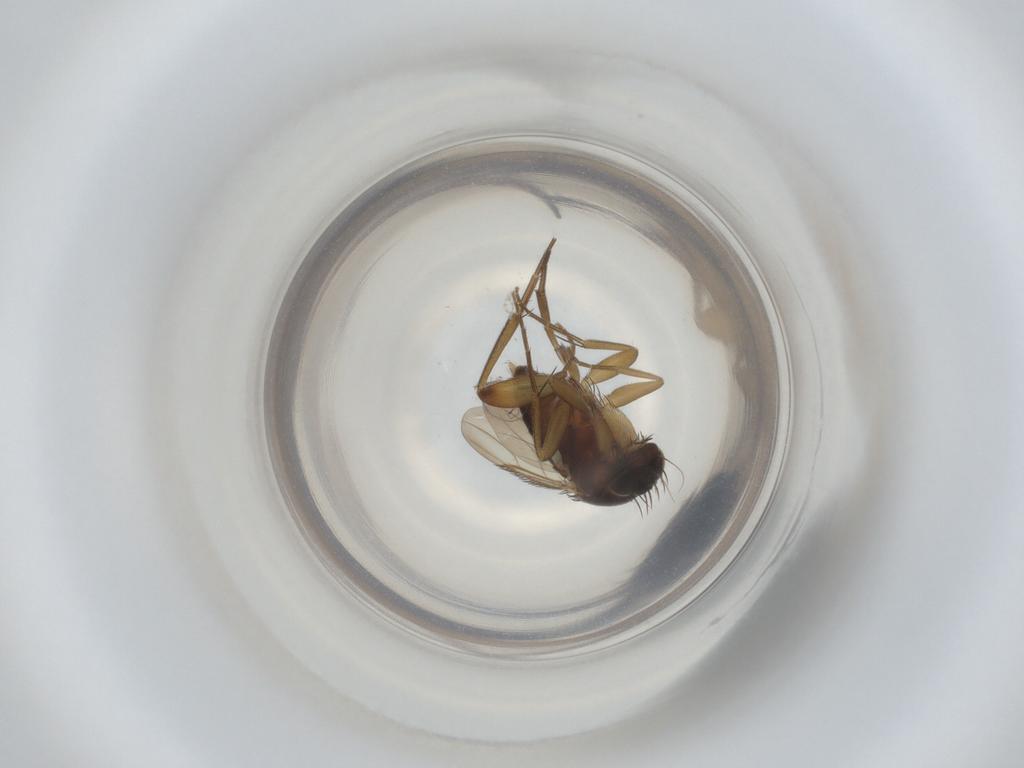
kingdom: Animalia
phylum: Arthropoda
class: Insecta
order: Diptera
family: Phoridae
